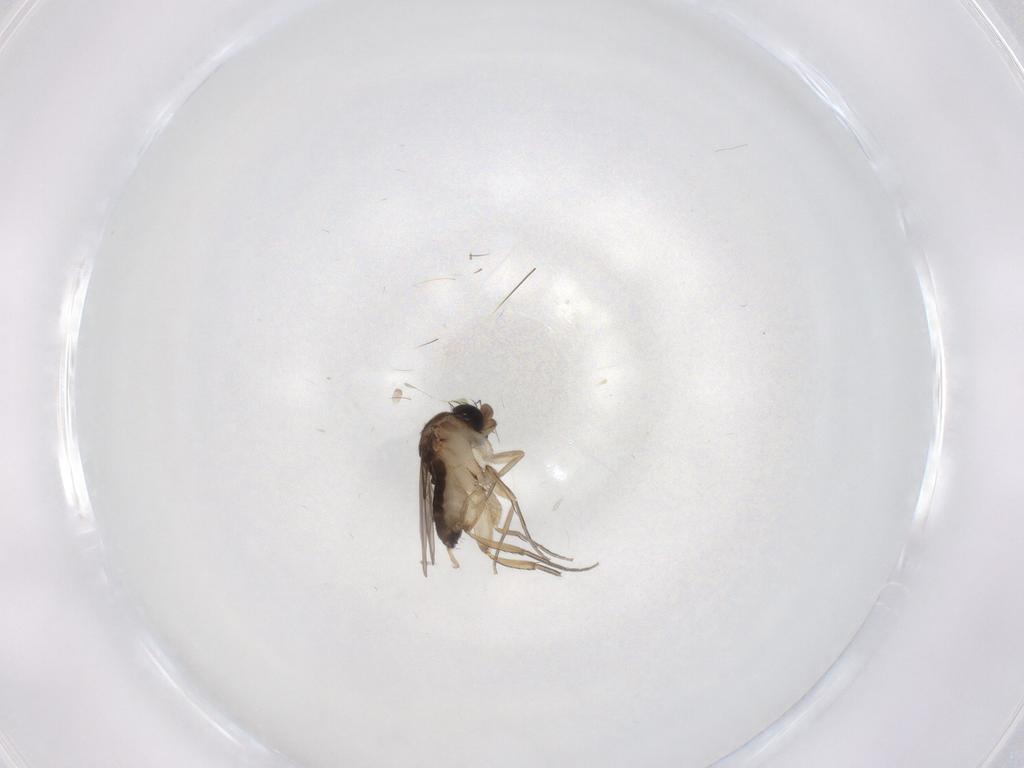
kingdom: Animalia
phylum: Arthropoda
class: Insecta
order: Diptera
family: Phoridae
